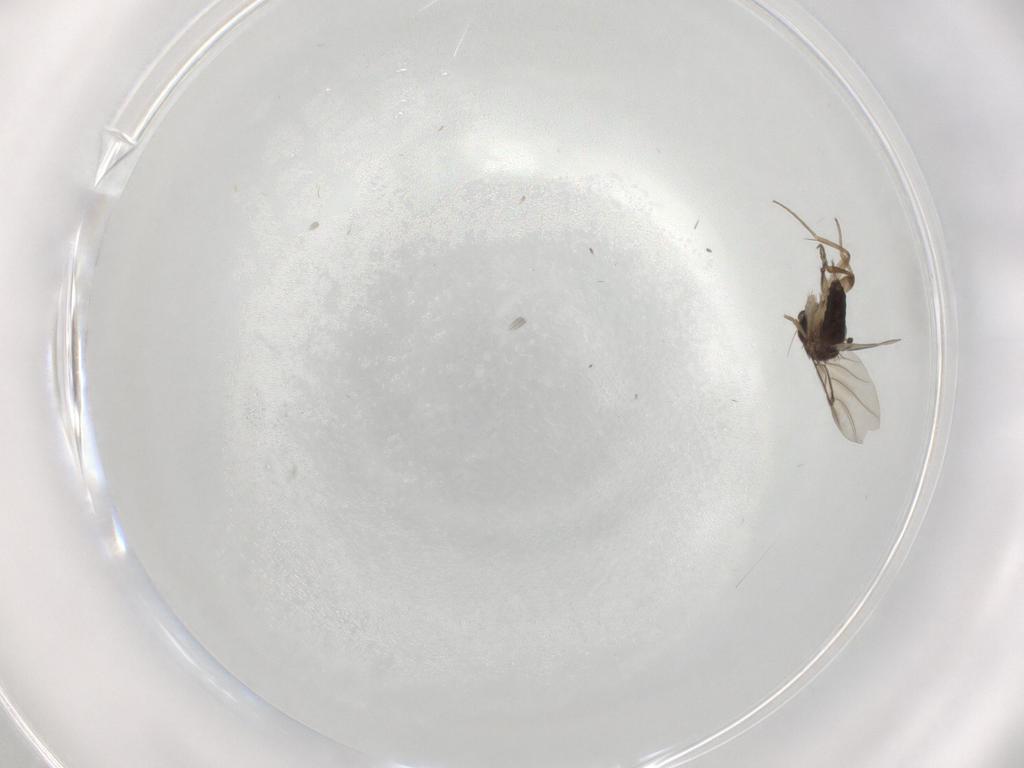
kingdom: Animalia
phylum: Arthropoda
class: Insecta
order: Diptera
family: Phoridae
